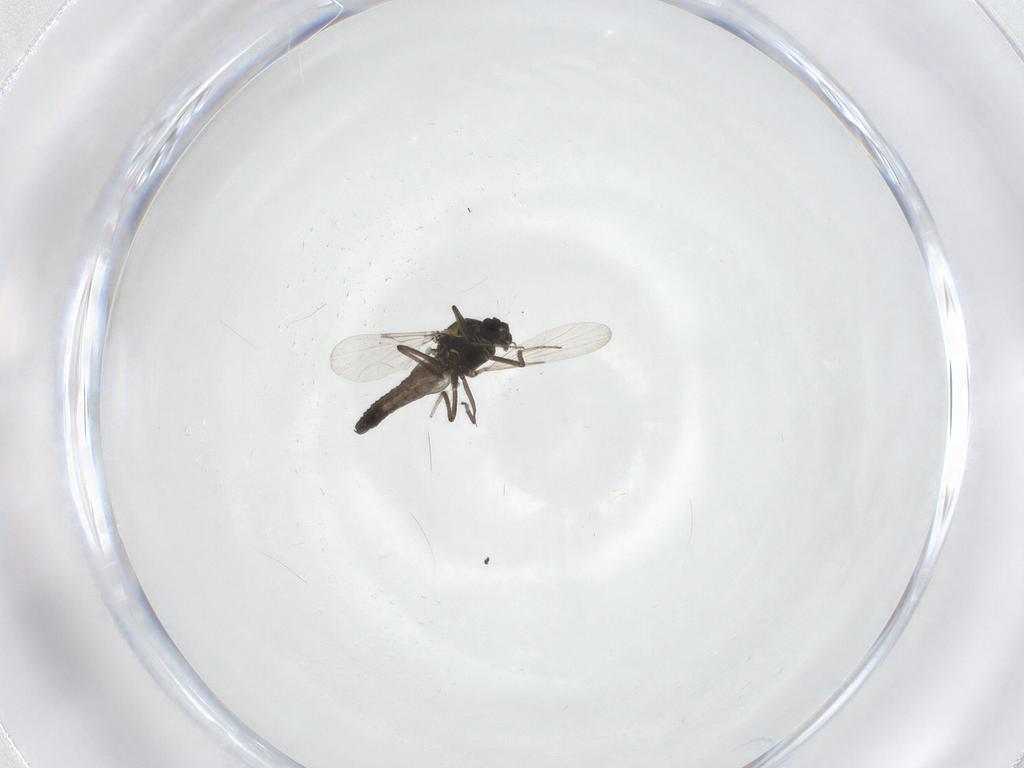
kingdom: Animalia
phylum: Arthropoda
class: Insecta
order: Diptera
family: Ceratopogonidae
